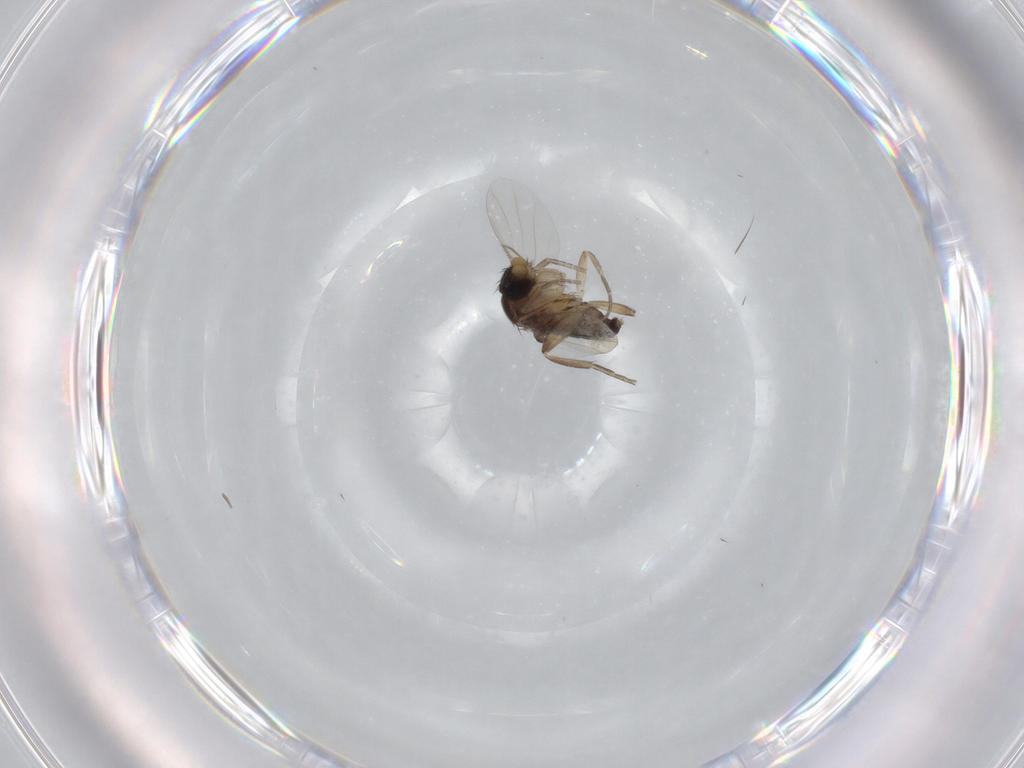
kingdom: Animalia
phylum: Arthropoda
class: Insecta
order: Diptera
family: Phoridae
